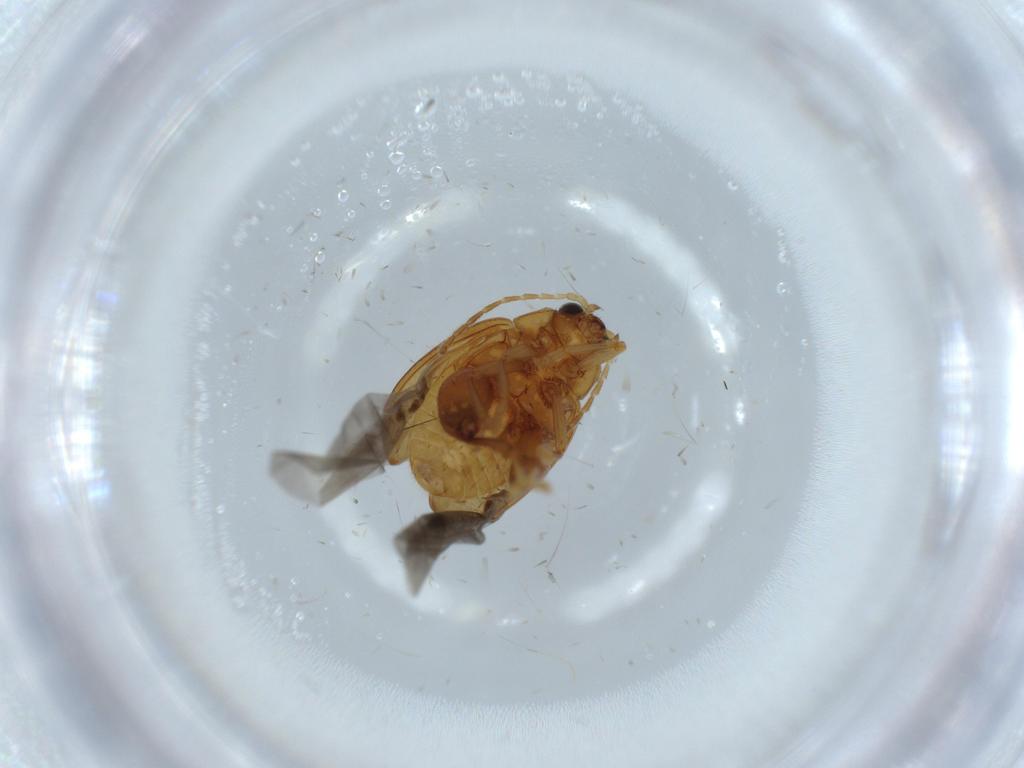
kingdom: Animalia
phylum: Arthropoda
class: Insecta
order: Coleoptera
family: Chrysomelidae
